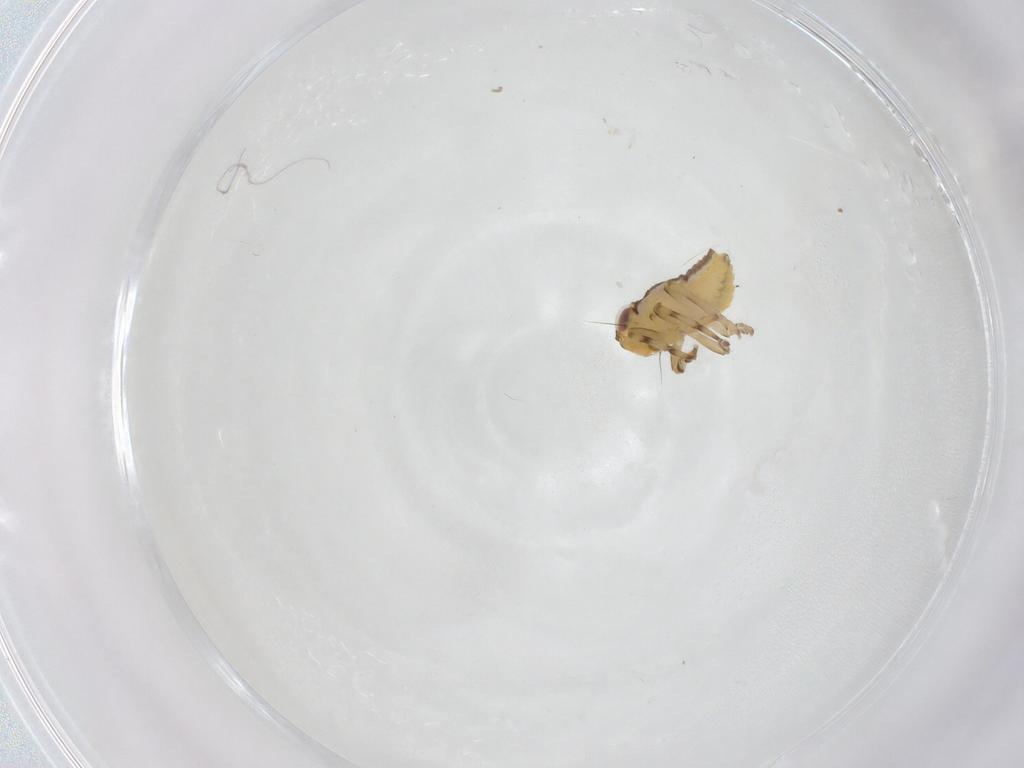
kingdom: Animalia
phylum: Arthropoda
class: Insecta
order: Hemiptera
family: Issidae
